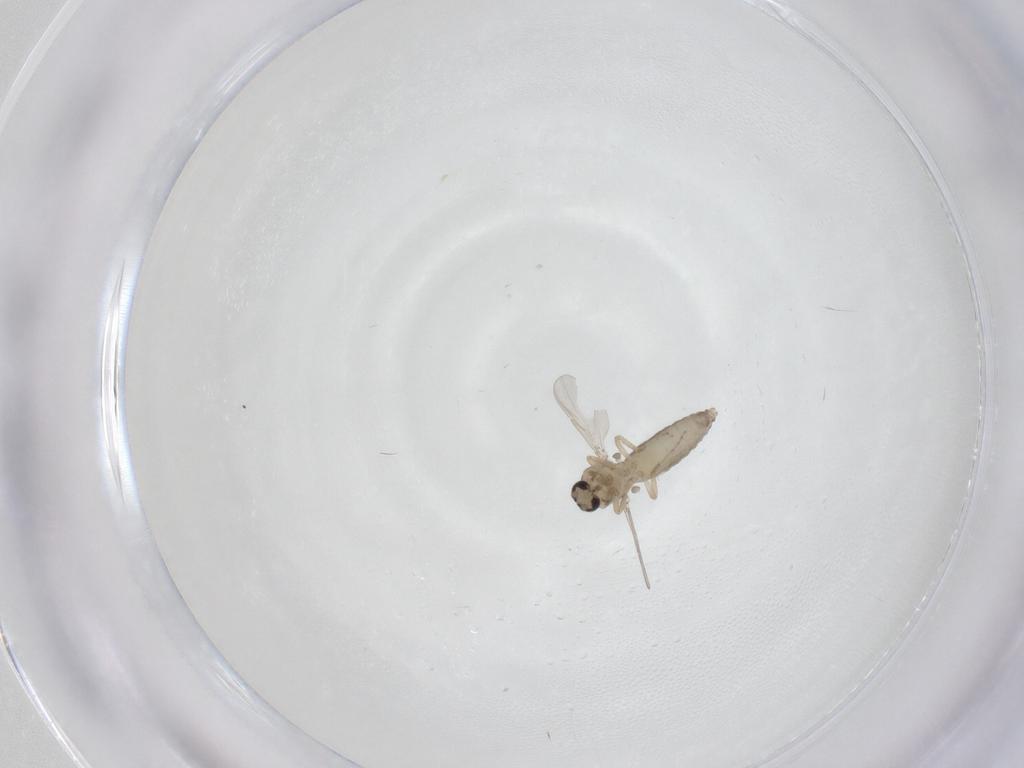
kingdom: Animalia
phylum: Arthropoda
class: Insecta
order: Diptera
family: Ceratopogonidae
